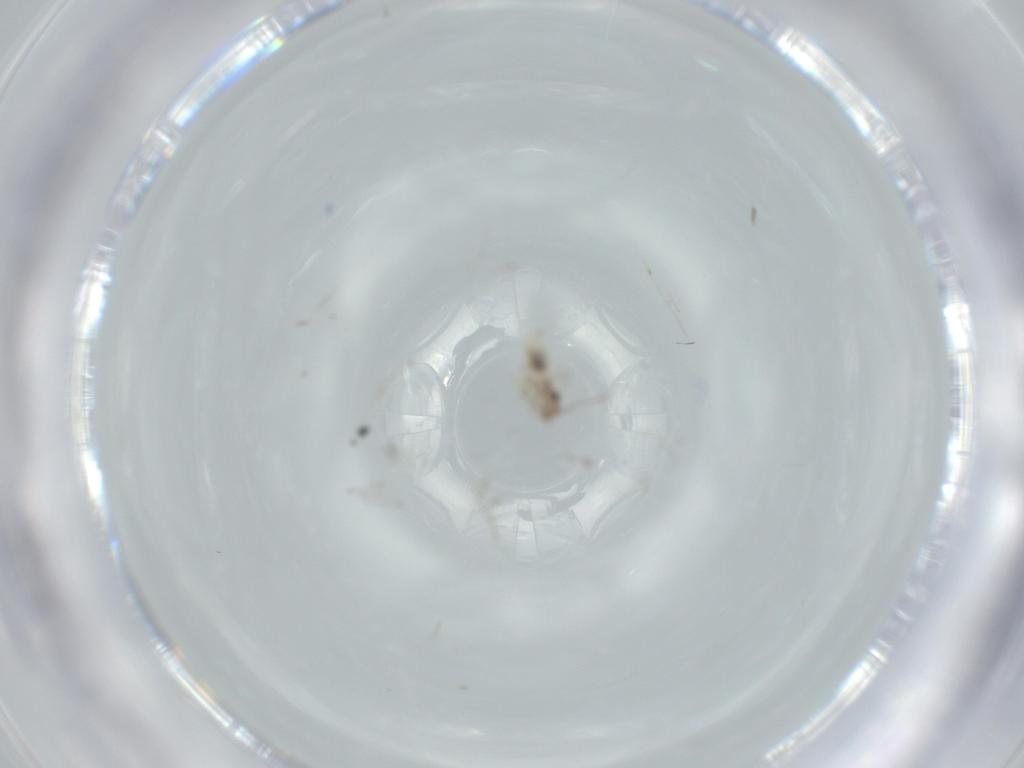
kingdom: Animalia
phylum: Arthropoda
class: Insecta
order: Psocodea
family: Lepidopsocidae
